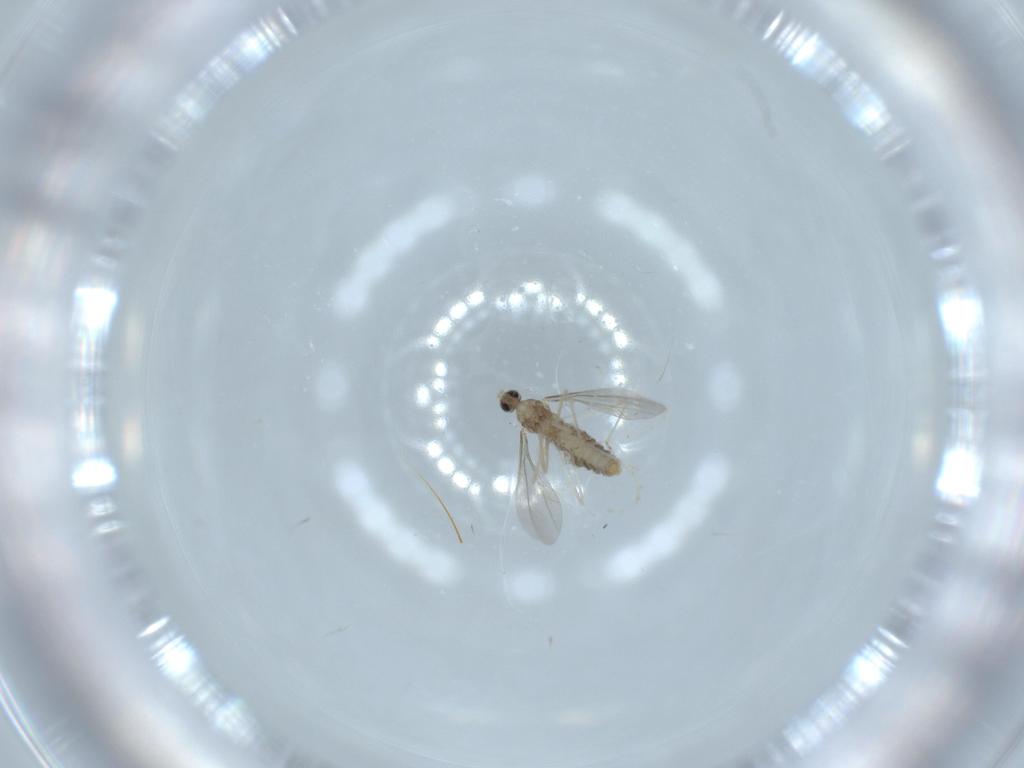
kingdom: Animalia
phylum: Arthropoda
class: Insecta
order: Diptera
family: Cecidomyiidae
